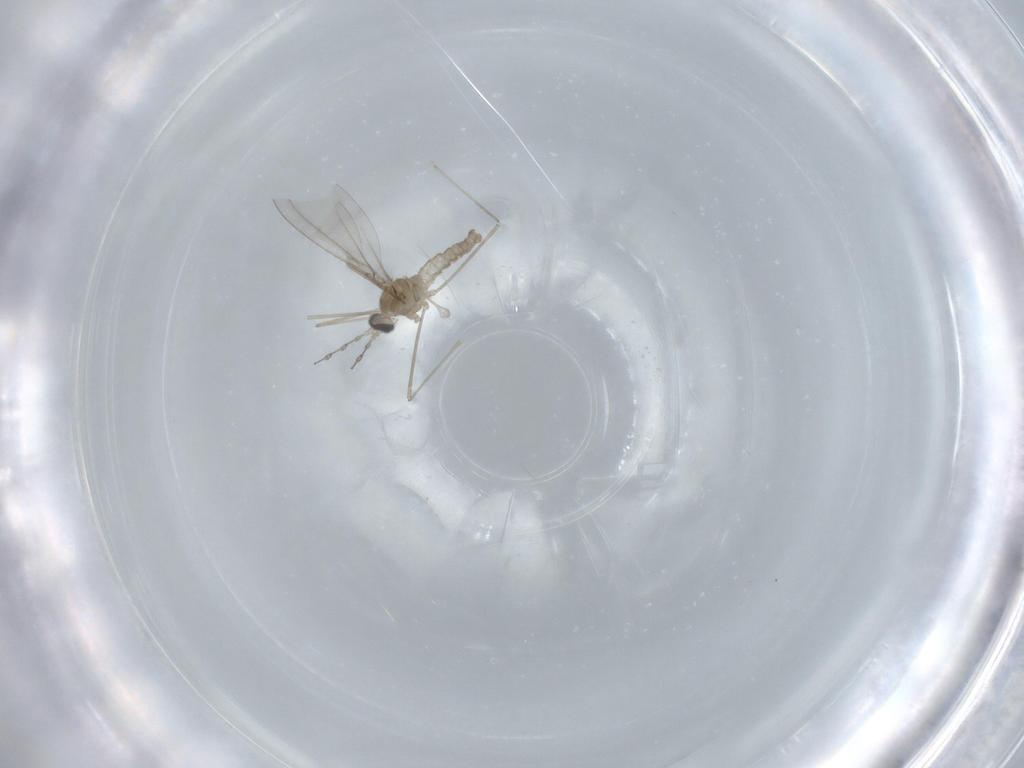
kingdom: Animalia
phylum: Arthropoda
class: Insecta
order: Diptera
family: Cecidomyiidae
